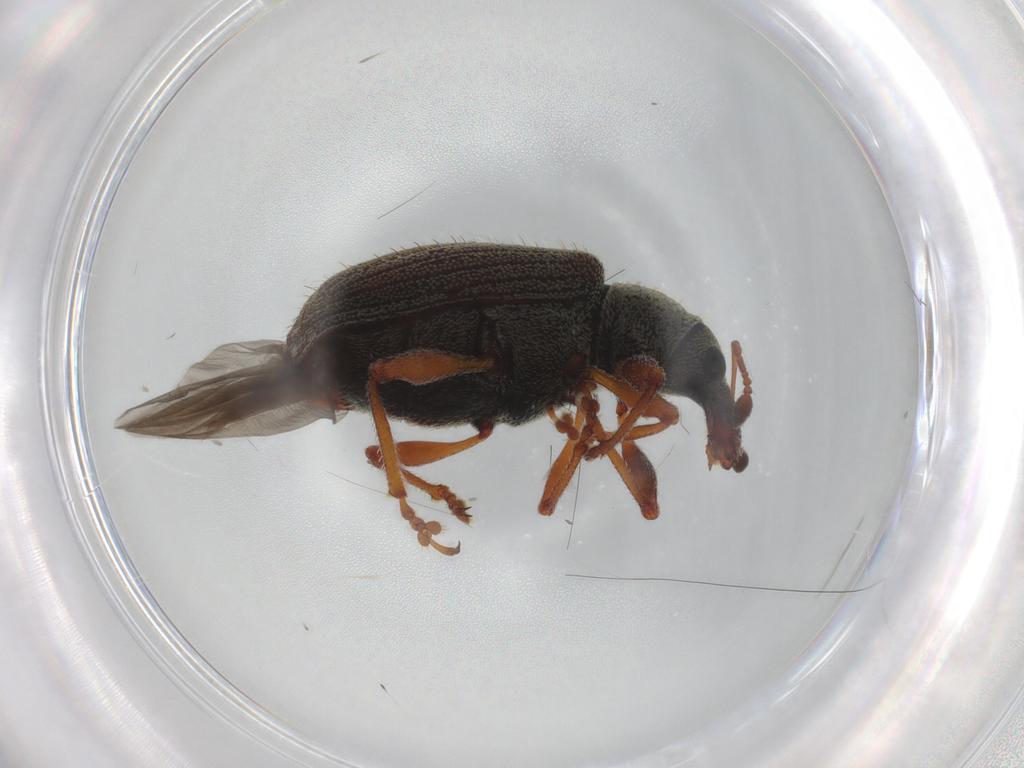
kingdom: Animalia
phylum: Arthropoda
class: Insecta
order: Coleoptera
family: Curculionidae
